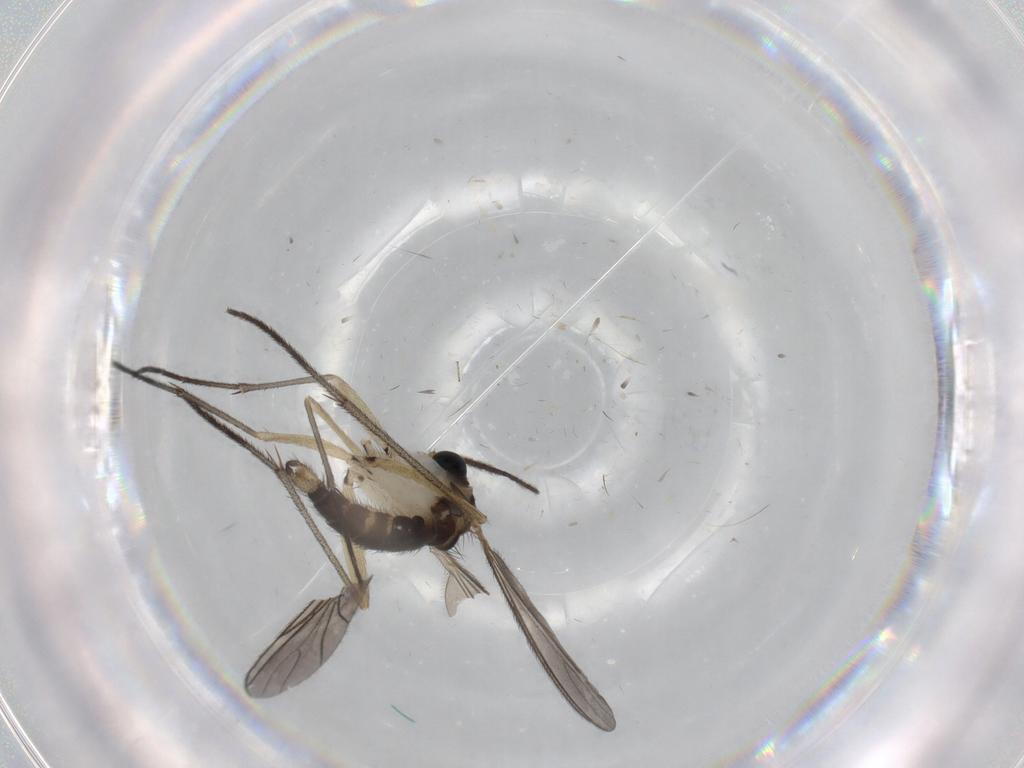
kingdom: Animalia
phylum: Arthropoda
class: Insecta
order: Diptera
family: Sciaridae
